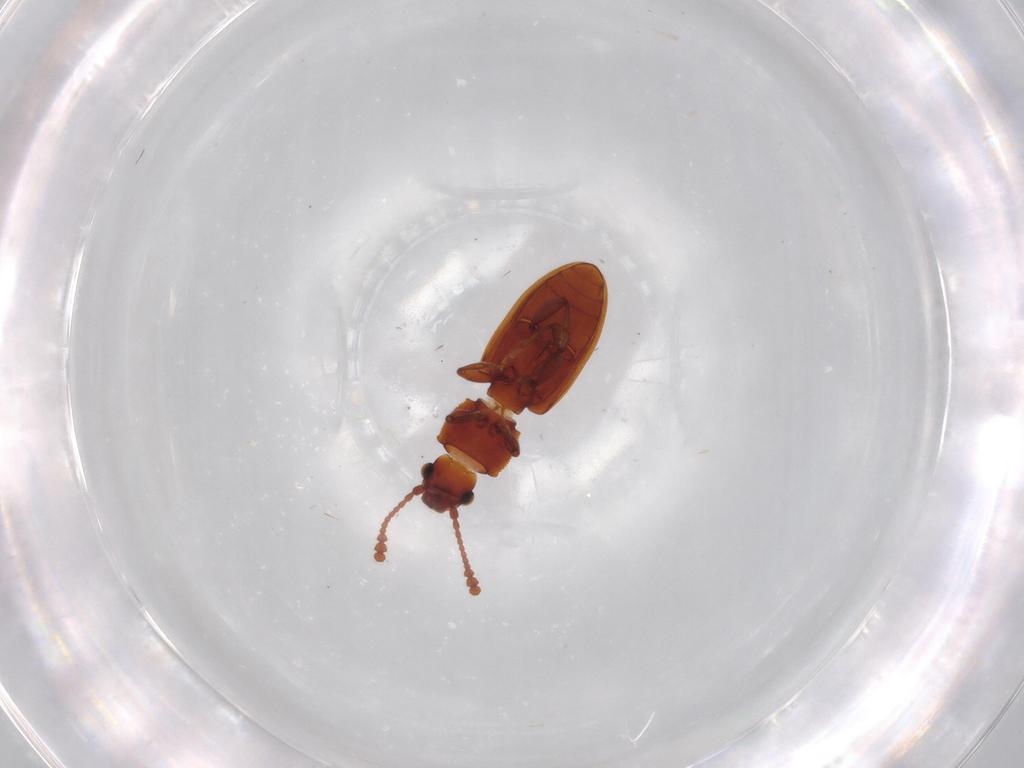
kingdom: Animalia
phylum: Arthropoda
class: Insecta
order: Coleoptera
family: Silvanidae
